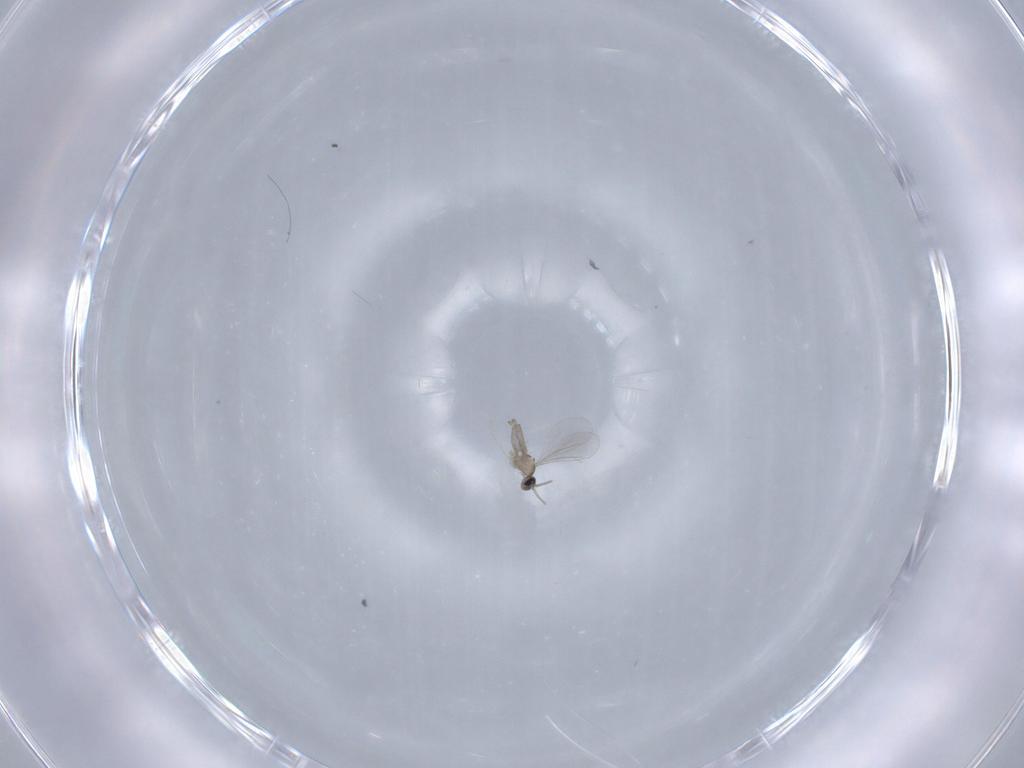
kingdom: Animalia
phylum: Arthropoda
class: Insecta
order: Diptera
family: Cecidomyiidae
